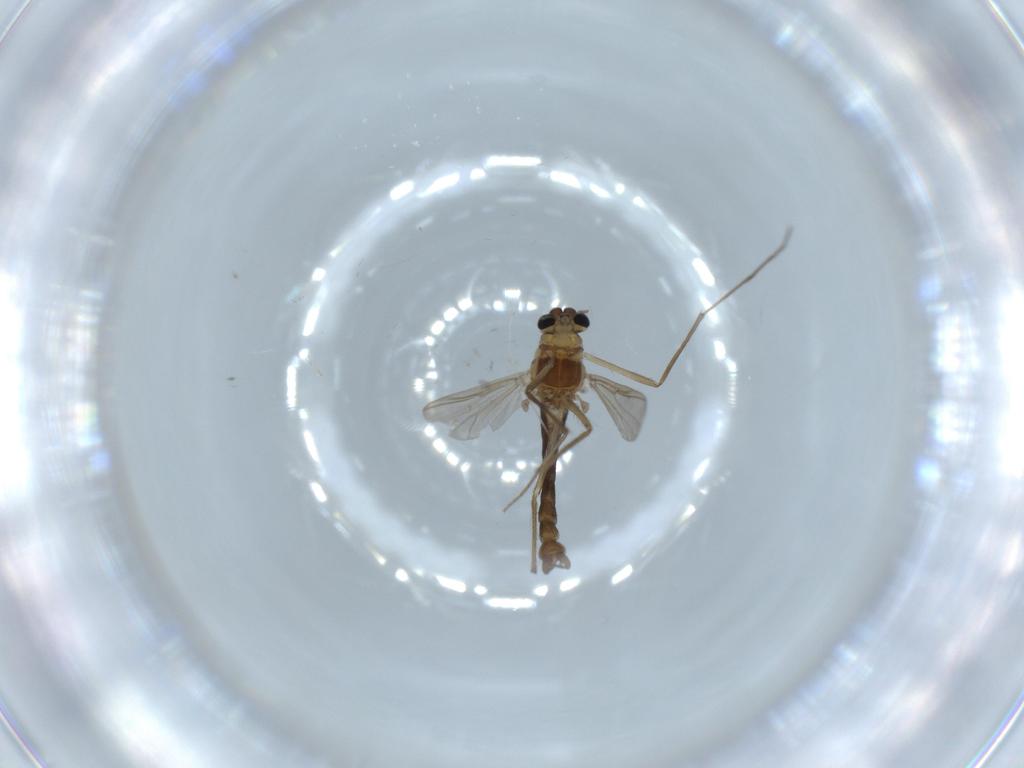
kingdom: Animalia
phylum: Arthropoda
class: Insecta
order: Diptera
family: Chironomidae
